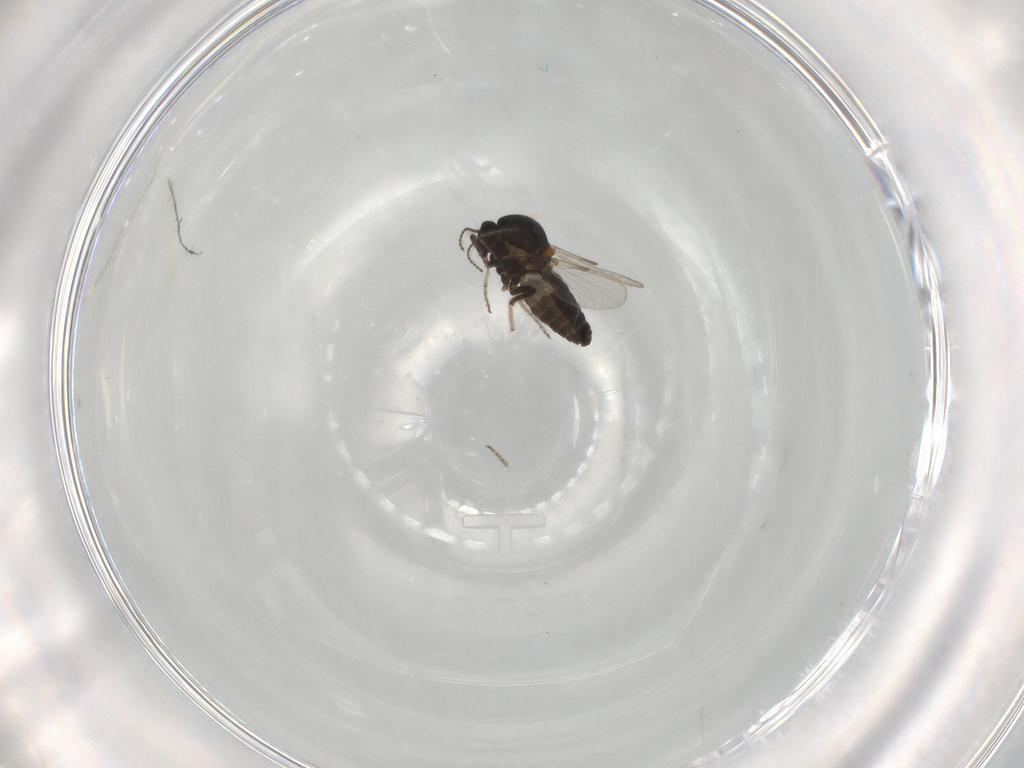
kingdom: Animalia
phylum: Arthropoda
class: Insecta
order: Diptera
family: Ceratopogonidae
